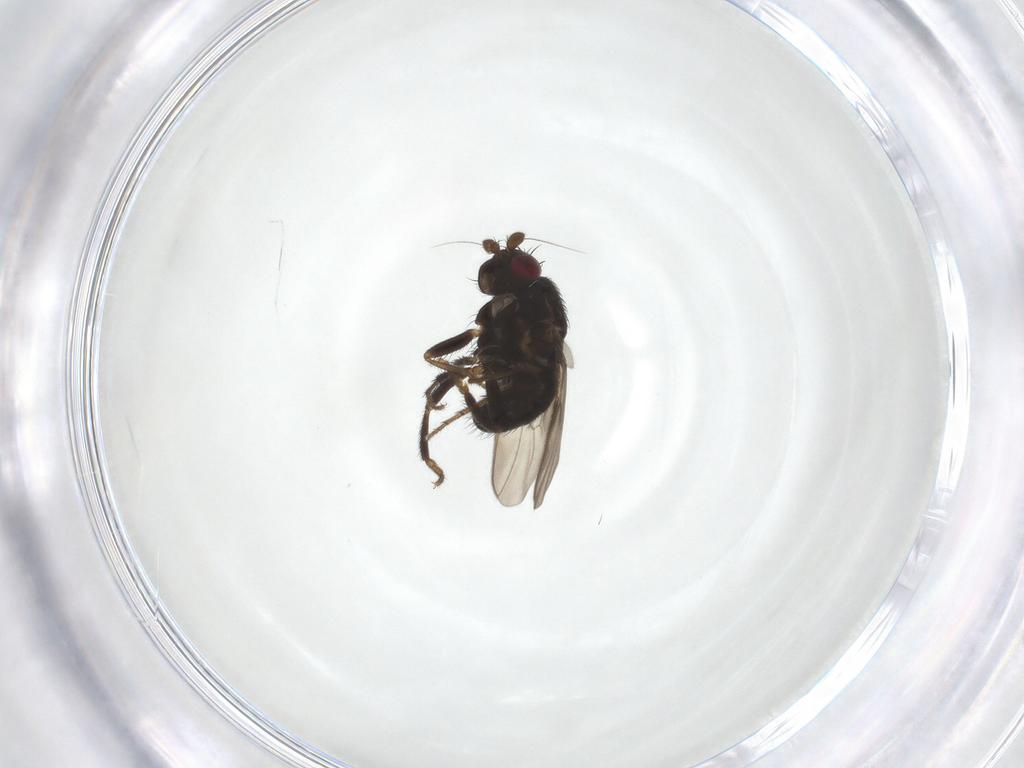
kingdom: Animalia
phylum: Arthropoda
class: Insecta
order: Diptera
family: Sphaeroceridae
